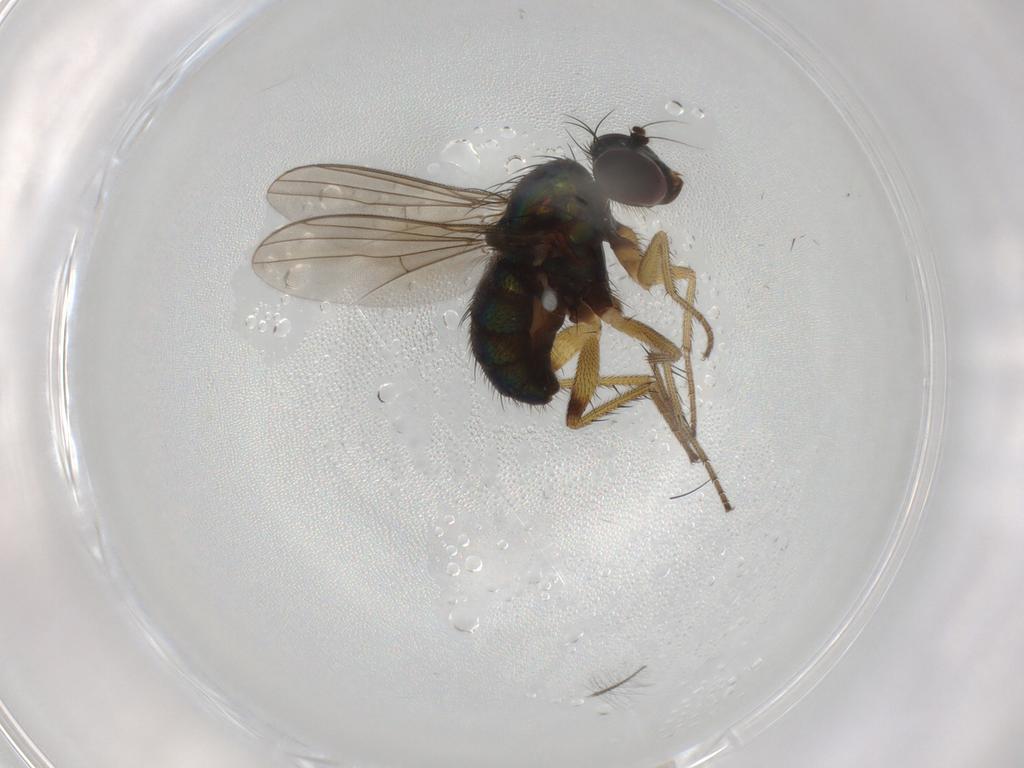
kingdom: Animalia
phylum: Arthropoda
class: Insecta
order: Diptera
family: Dolichopodidae
